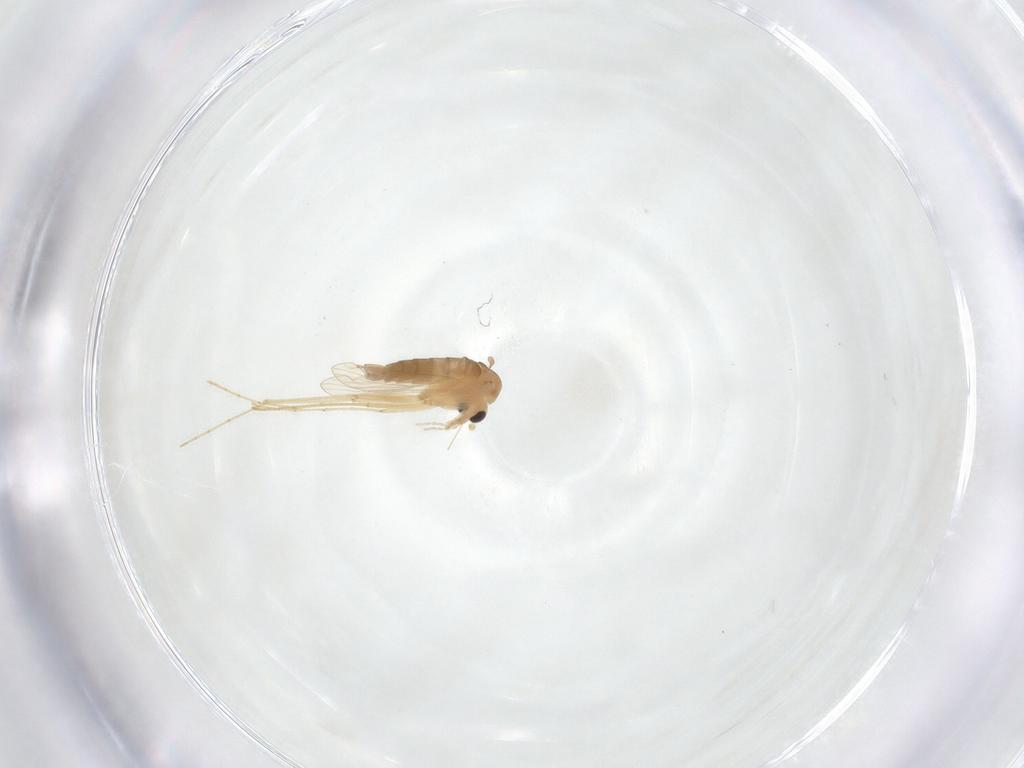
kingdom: Animalia
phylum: Arthropoda
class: Insecta
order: Diptera
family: Psychodidae
